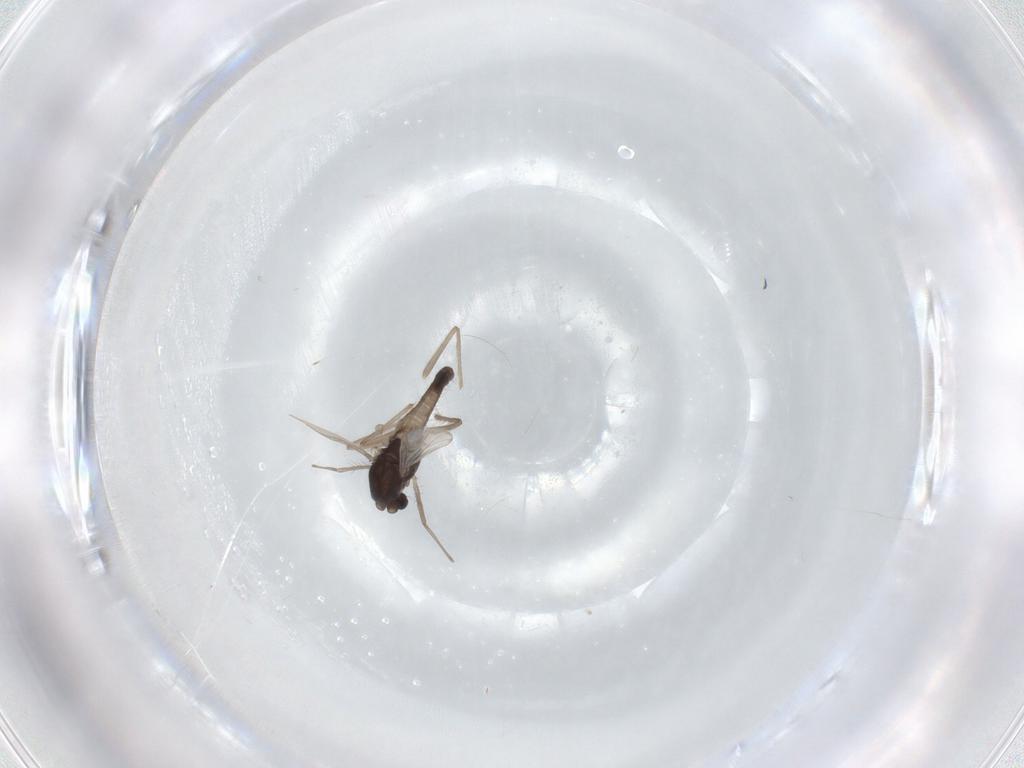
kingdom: Animalia
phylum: Arthropoda
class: Insecta
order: Diptera
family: Chironomidae
